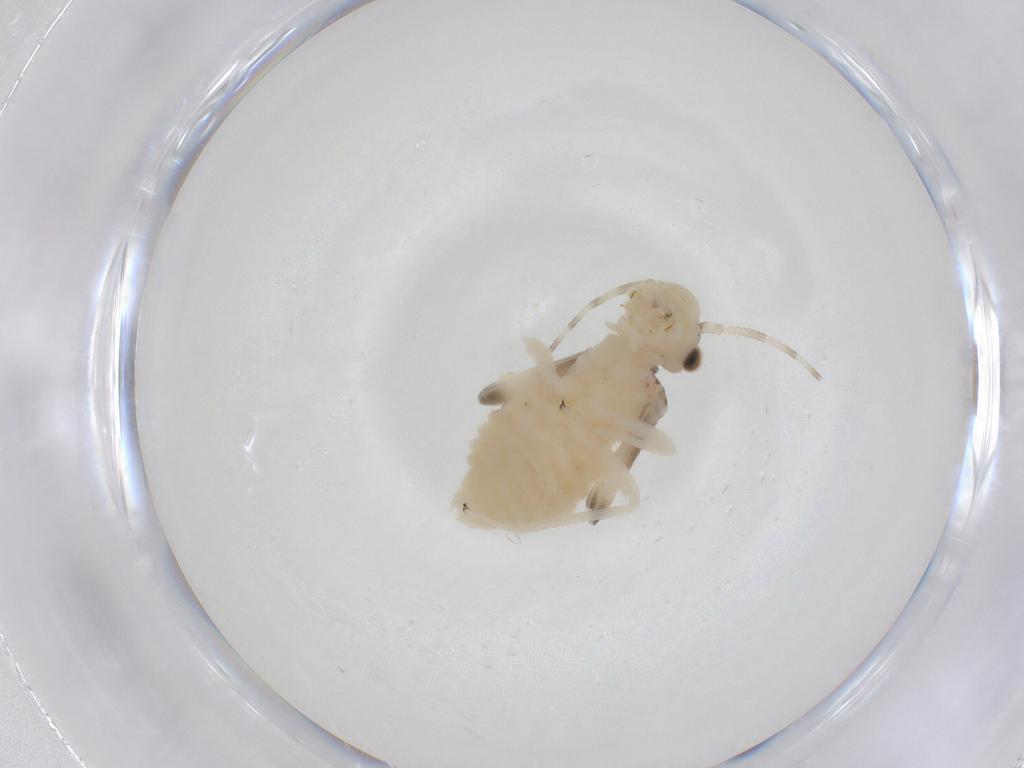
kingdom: Animalia
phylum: Arthropoda
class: Insecta
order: Psocodea
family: Amphipsocidae
